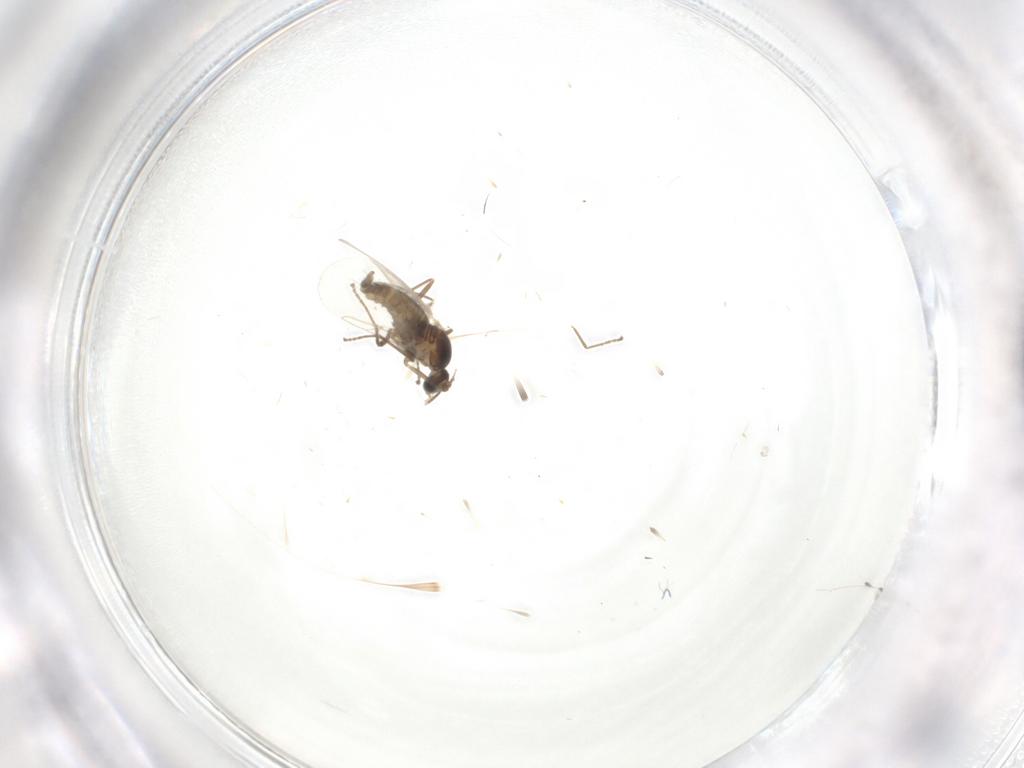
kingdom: Animalia
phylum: Arthropoda
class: Insecta
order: Diptera
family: Cecidomyiidae
